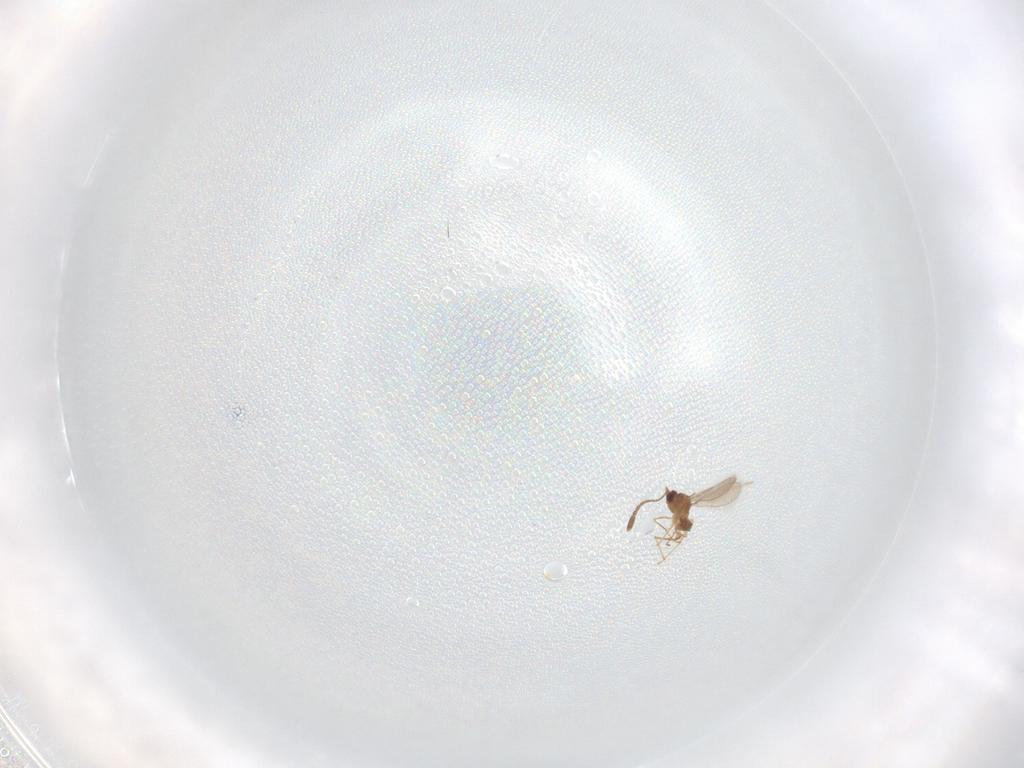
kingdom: Animalia
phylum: Arthropoda
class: Insecta
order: Hymenoptera
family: Mymaridae
